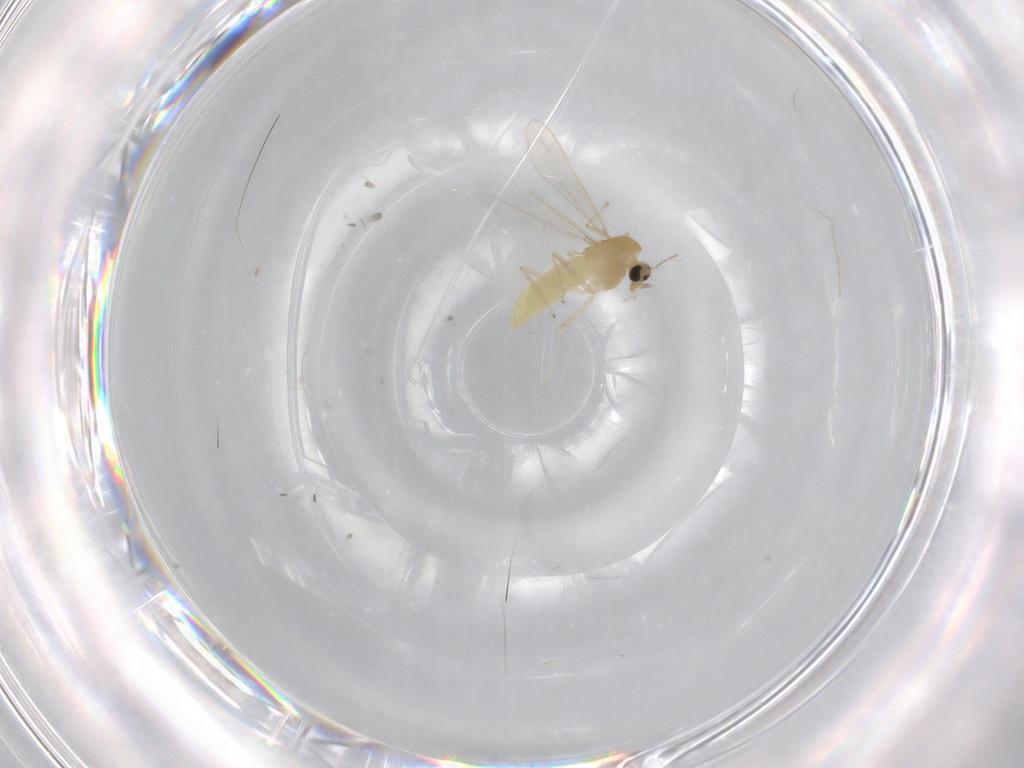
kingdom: Animalia
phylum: Arthropoda
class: Insecta
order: Diptera
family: Chironomidae
